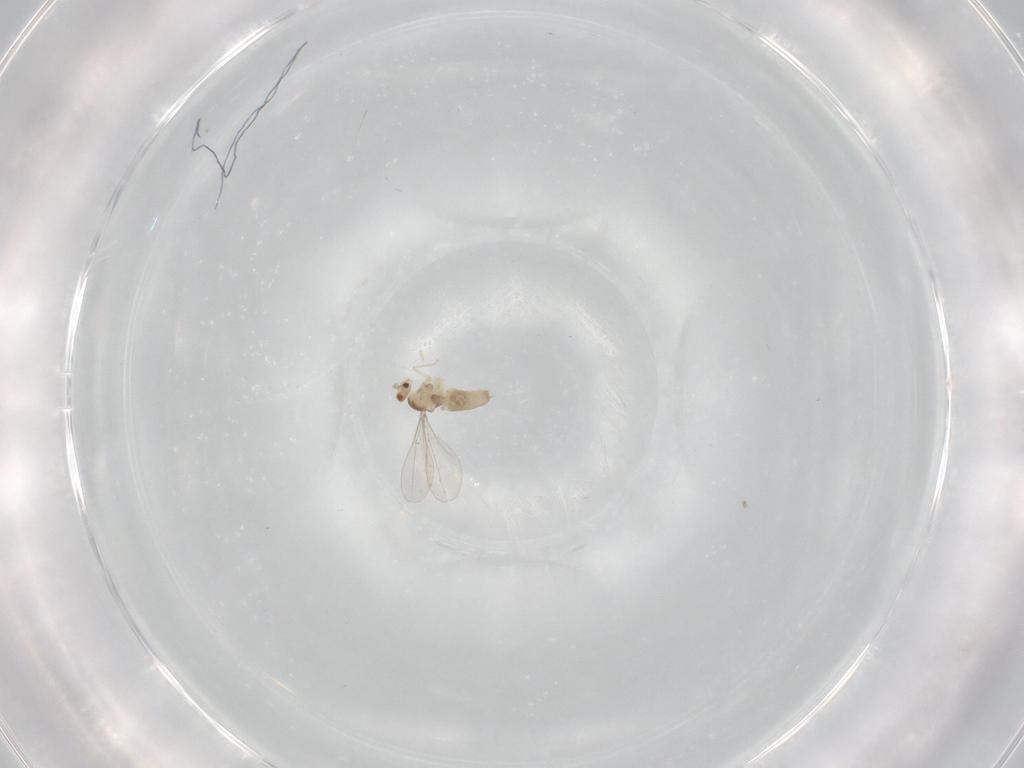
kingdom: Animalia
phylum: Arthropoda
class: Insecta
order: Diptera
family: Cecidomyiidae
